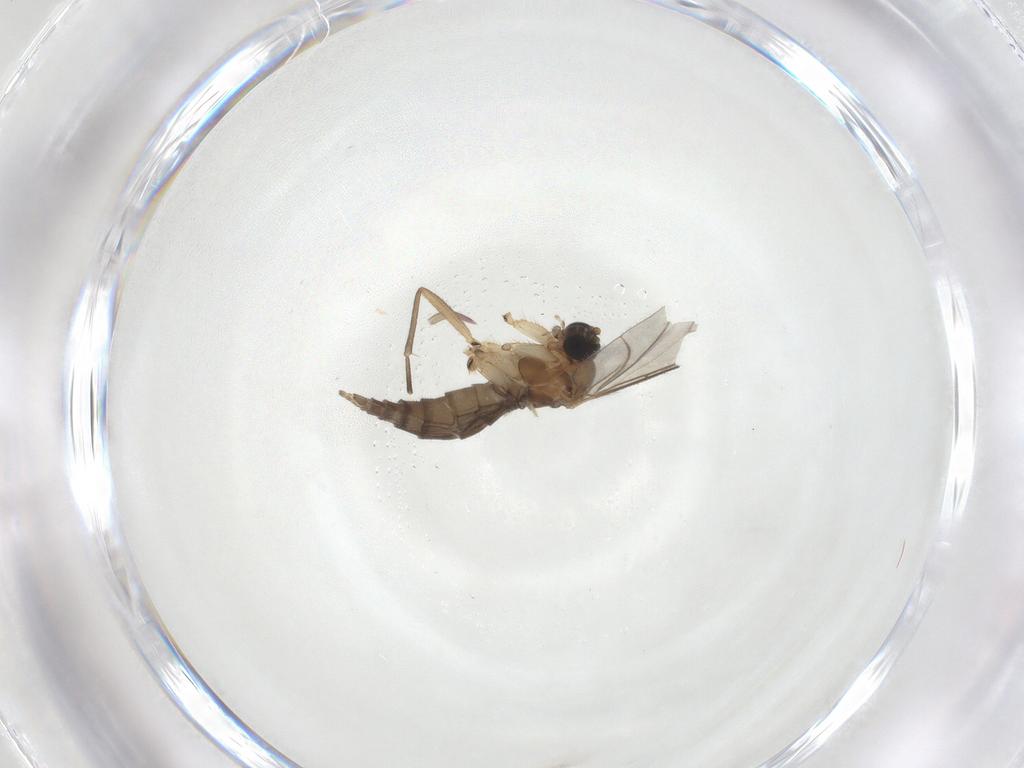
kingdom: Animalia
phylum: Arthropoda
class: Insecta
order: Diptera
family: Sciaridae
